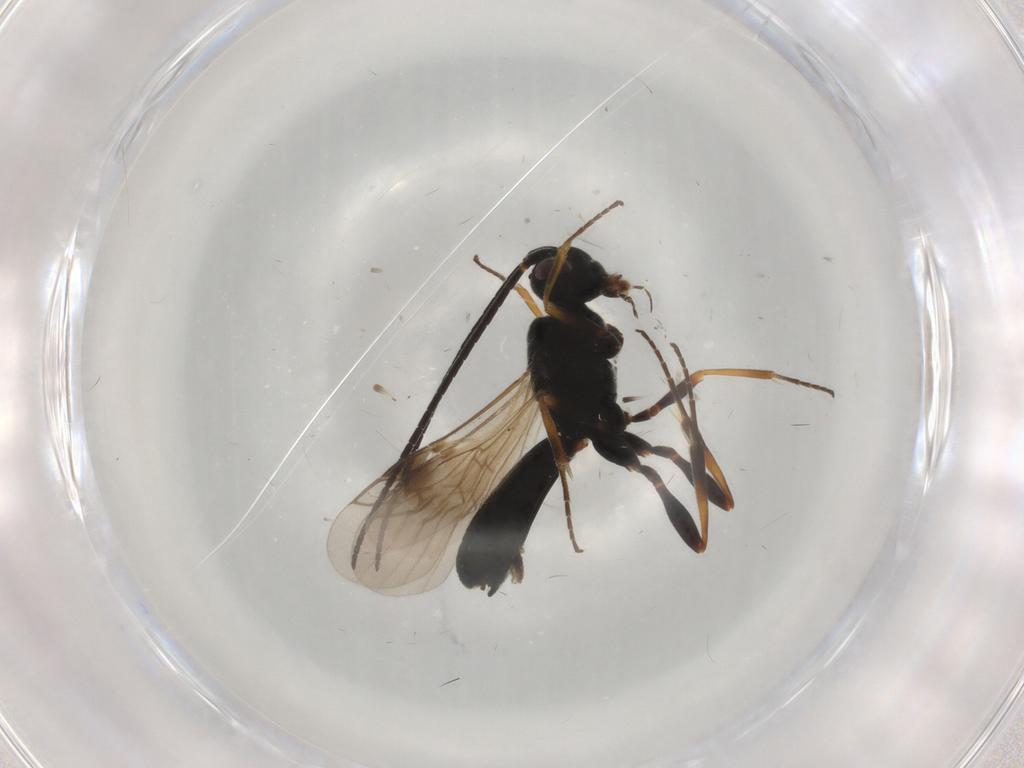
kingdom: Animalia
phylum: Arthropoda
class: Insecta
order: Hymenoptera
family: Braconidae
